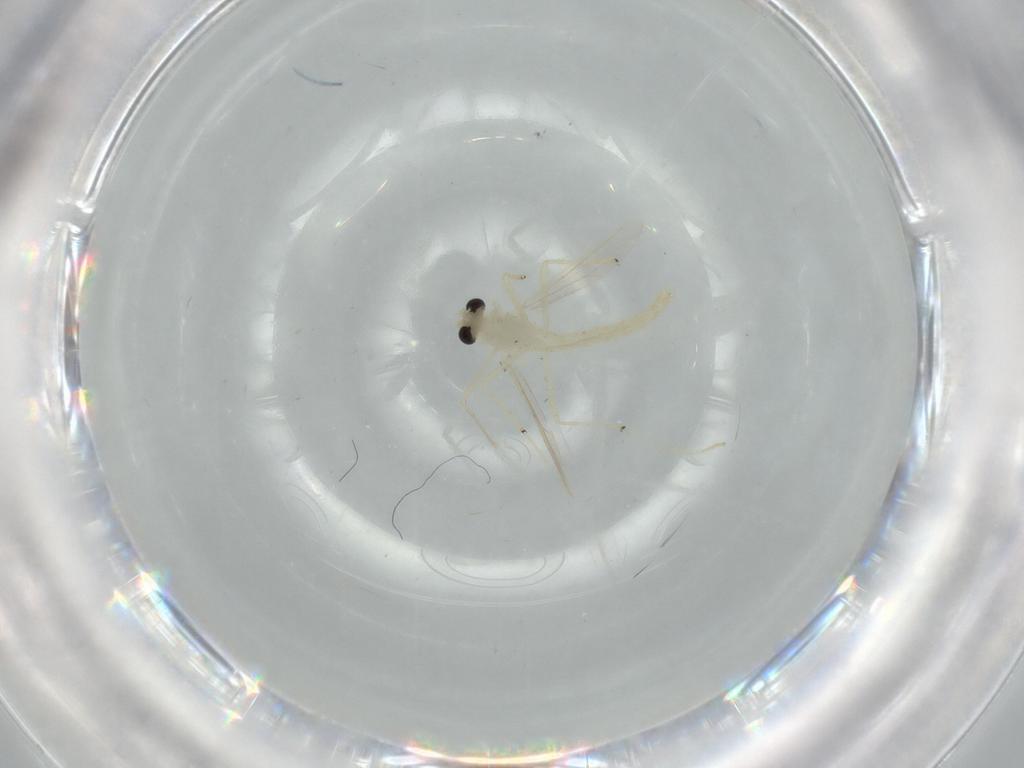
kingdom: Animalia
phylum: Arthropoda
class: Insecta
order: Diptera
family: Chironomidae
